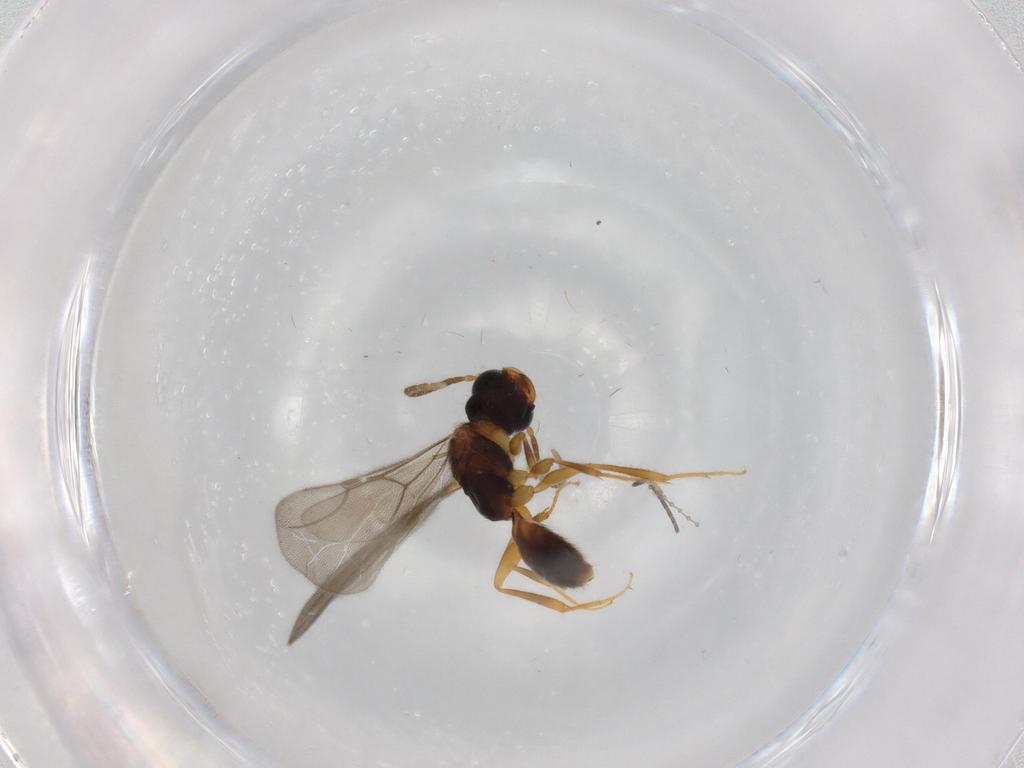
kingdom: Animalia
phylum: Arthropoda
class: Insecta
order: Hymenoptera
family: Bethylidae
